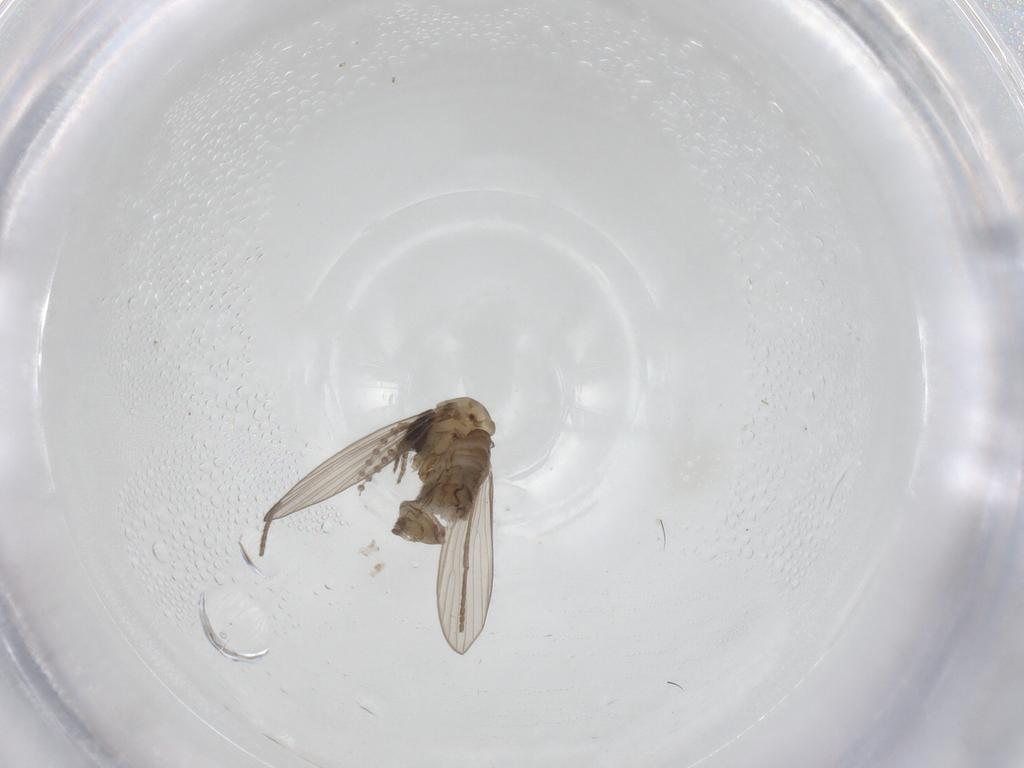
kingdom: Animalia
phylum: Arthropoda
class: Insecta
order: Diptera
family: Psychodidae
